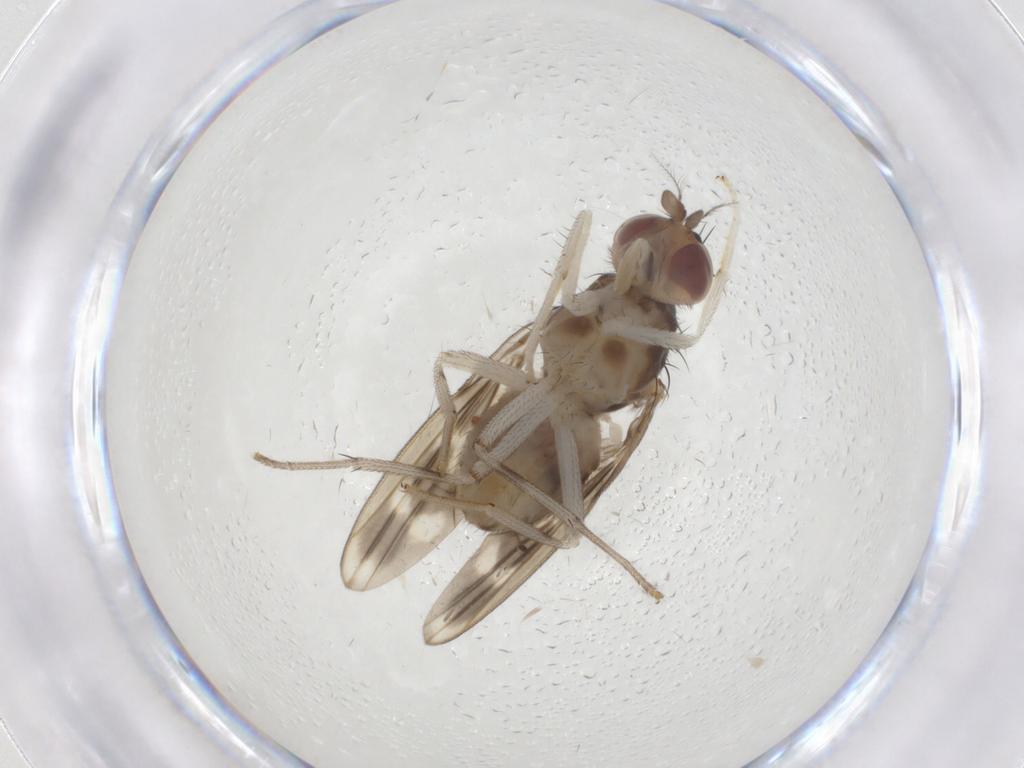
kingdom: Animalia
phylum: Arthropoda
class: Insecta
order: Diptera
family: Lauxaniidae
